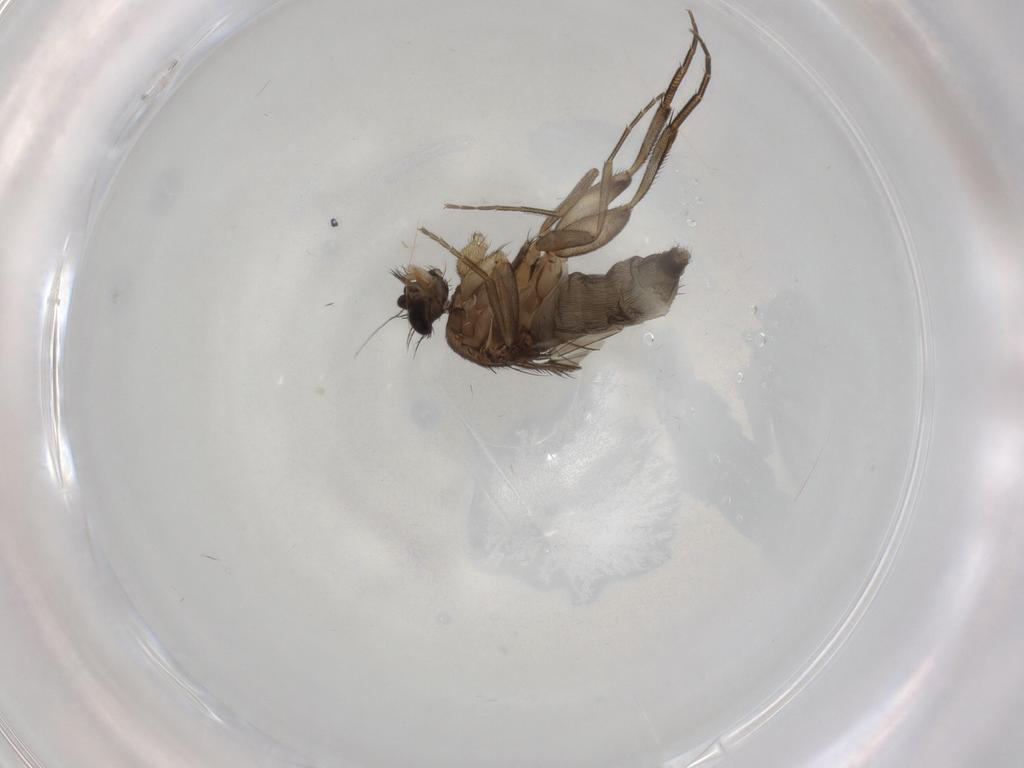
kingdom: Animalia
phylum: Arthropoda
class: Insecta
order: Diptera
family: Phoridae
